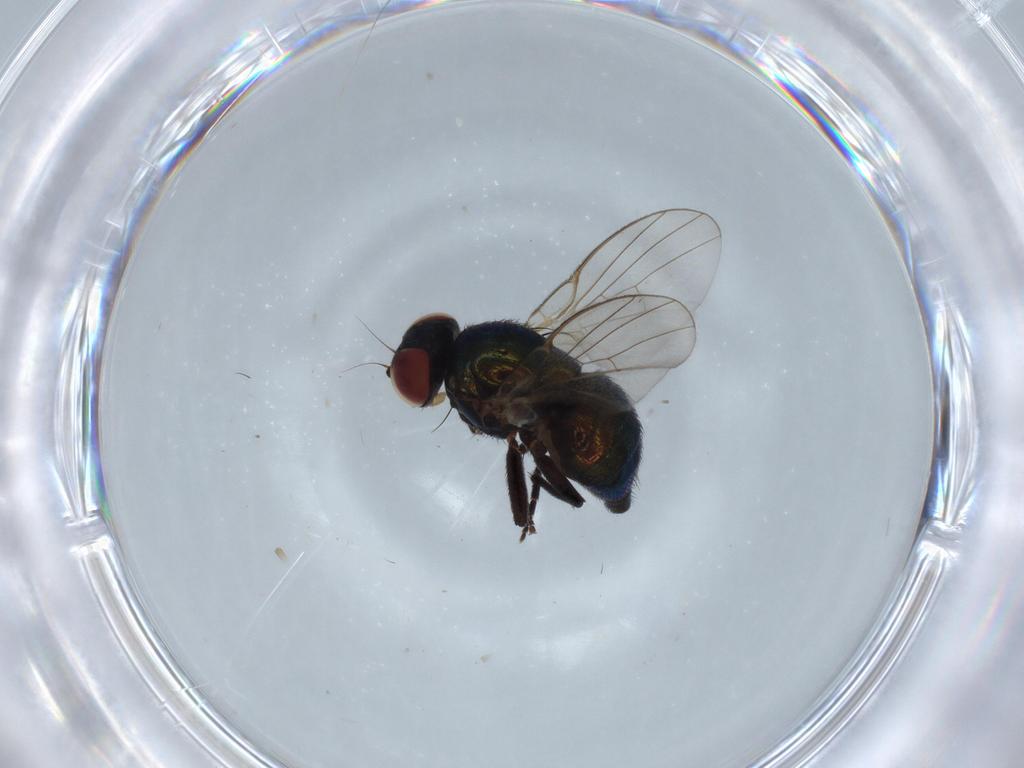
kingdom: Animalia
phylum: Arthropoda
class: Insecta
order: Diptera
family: Agromyzidae
